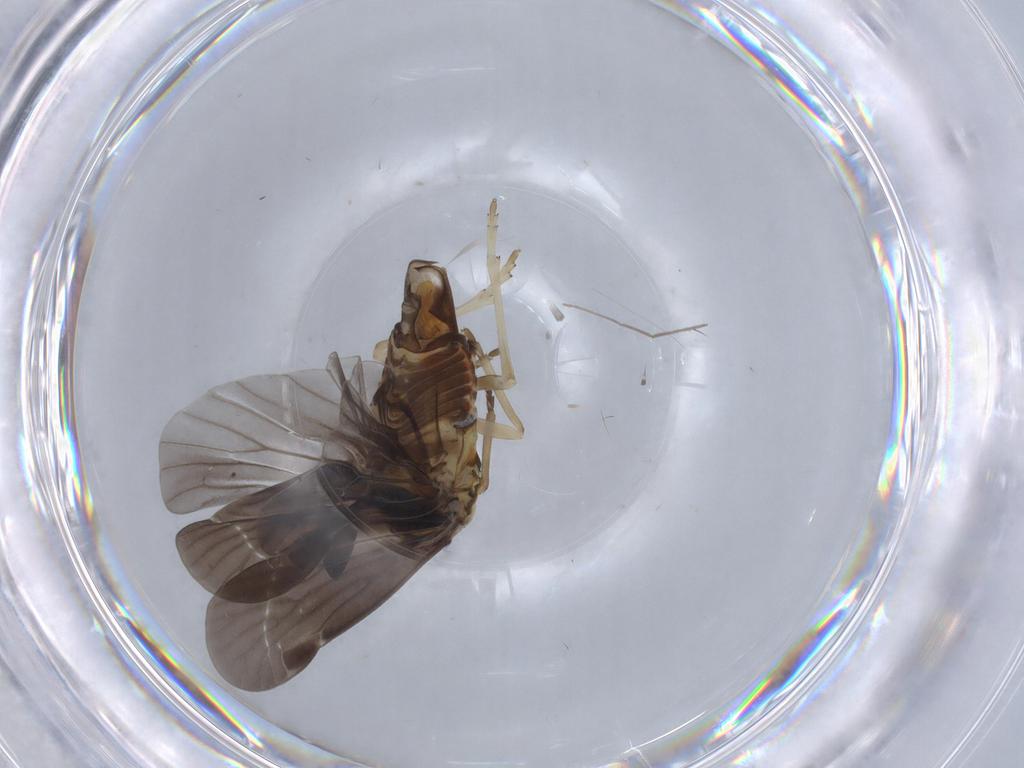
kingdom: Animalia
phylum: Arthropoda
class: Insecta
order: Hemiptera
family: Derbidae
